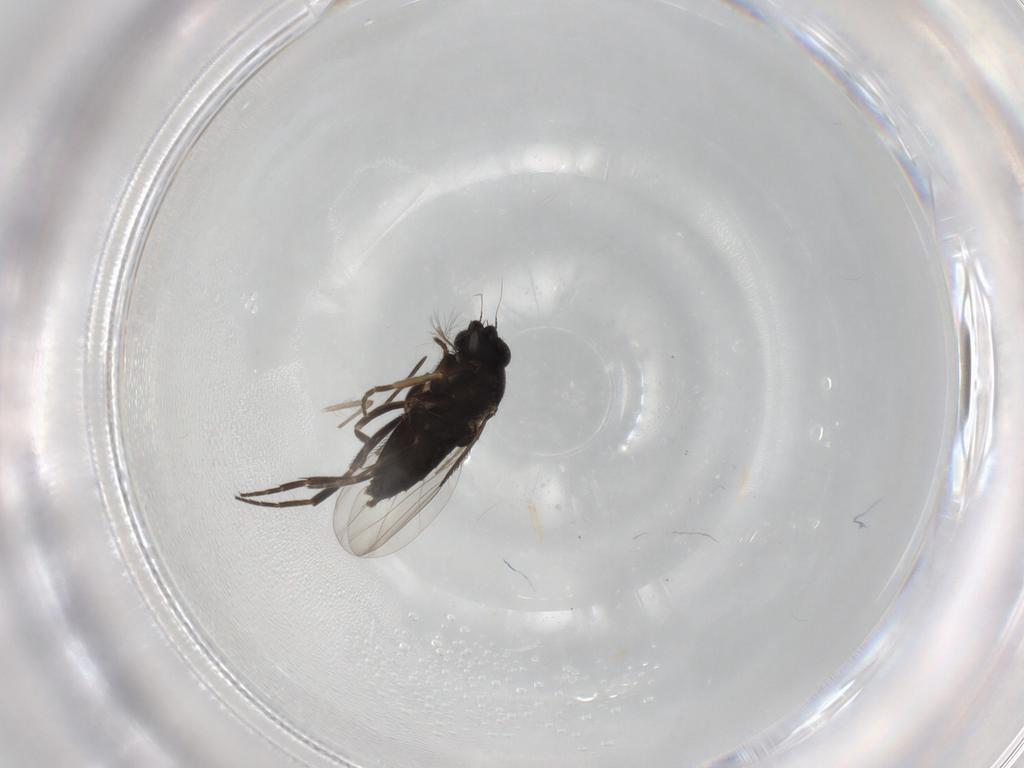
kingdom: Animalia
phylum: Arthropoda
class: Insecta
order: Diptera
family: Phoridae
